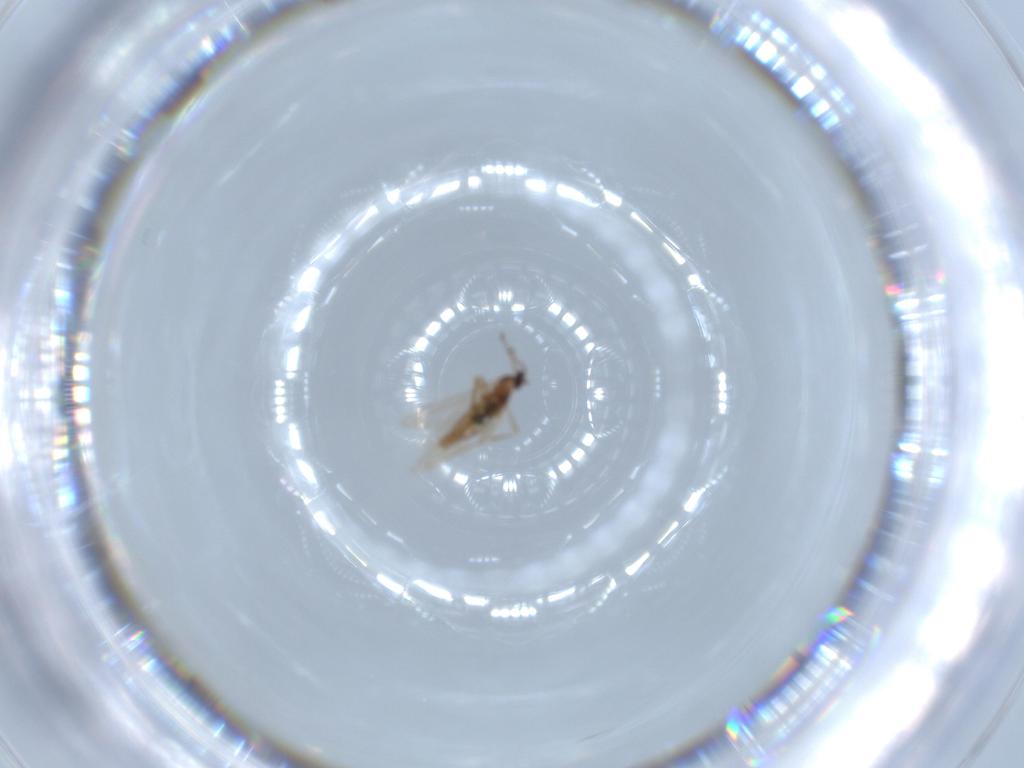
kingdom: Animalia
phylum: Arthropoda
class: Insecta
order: Diptera
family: Cecidomyiidae
